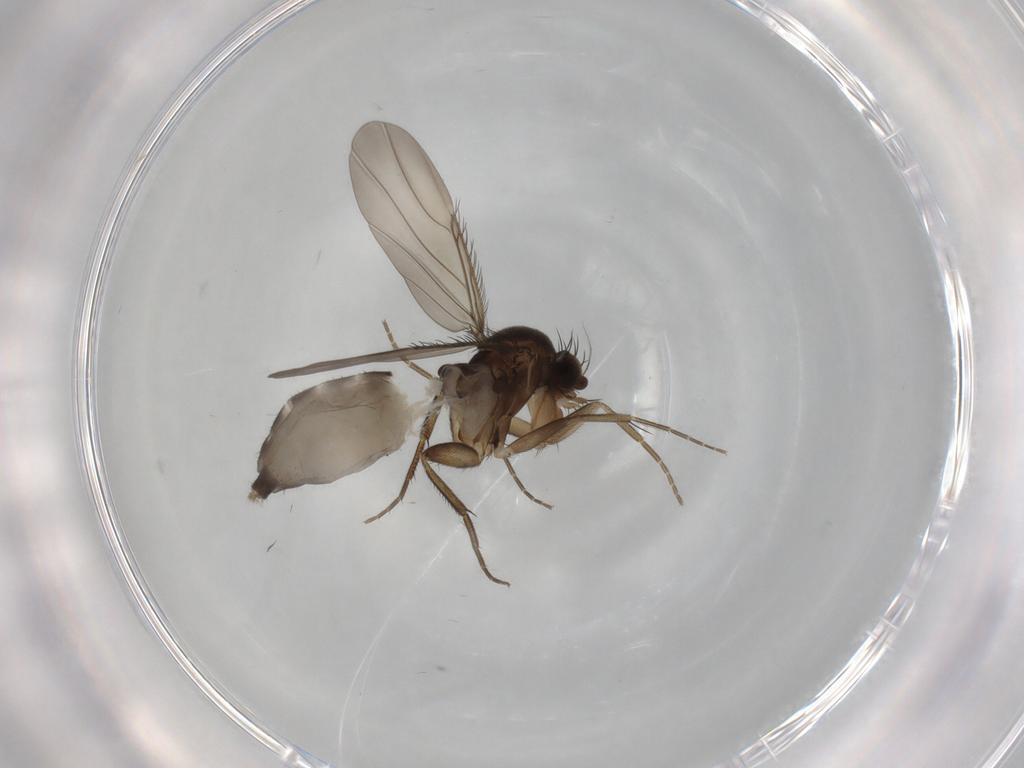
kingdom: Animalia
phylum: Arthropoda
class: Insecta
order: Diptera
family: Phoridae
